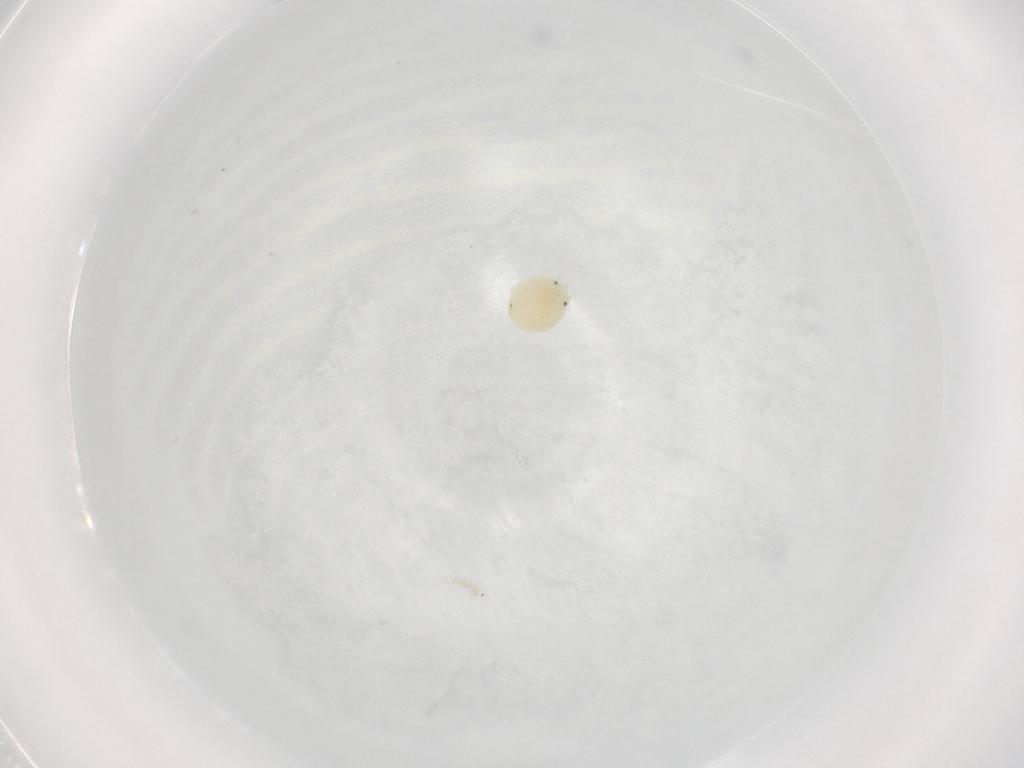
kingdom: Animalia
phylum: Arthropoda
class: Arachnida
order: Trombidiformes
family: Arrenuridae
